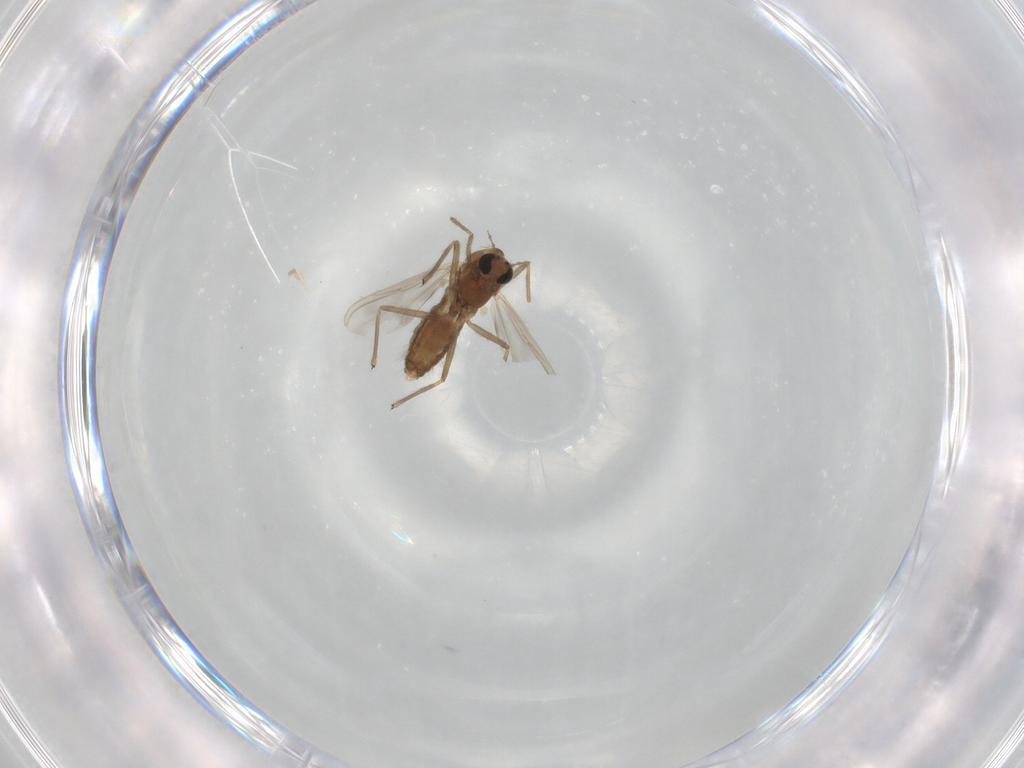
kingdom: Animalia
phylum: Arthropoda
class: Insecta
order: Diptera
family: Chironomidae
